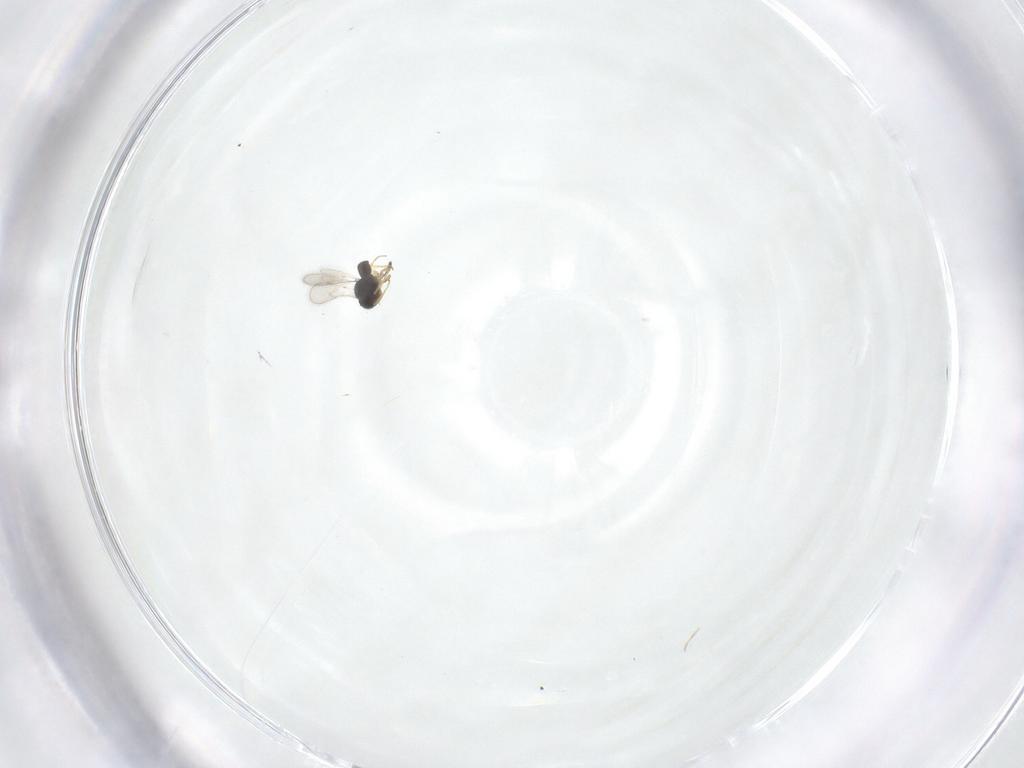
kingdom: Animalia
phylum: Arthropoda
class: Insecta
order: Hymenoptera
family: Scelionidae
